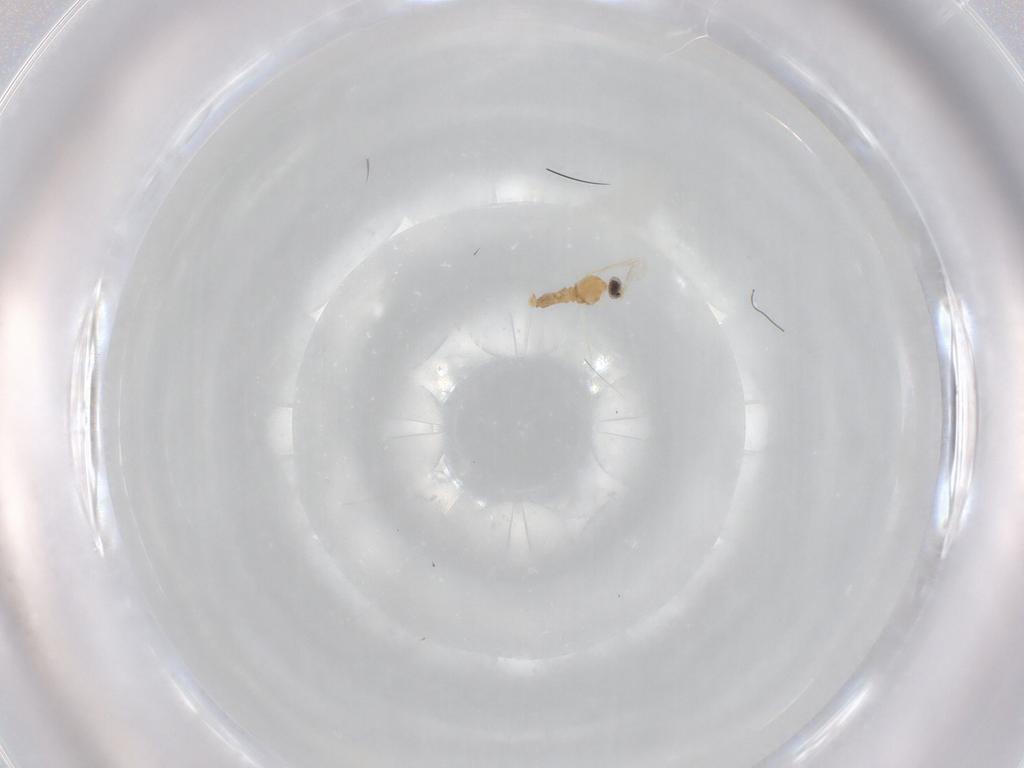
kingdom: Animalia
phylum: Arthropoda
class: Insecta
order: Diptera
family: Cecidomyiidae
